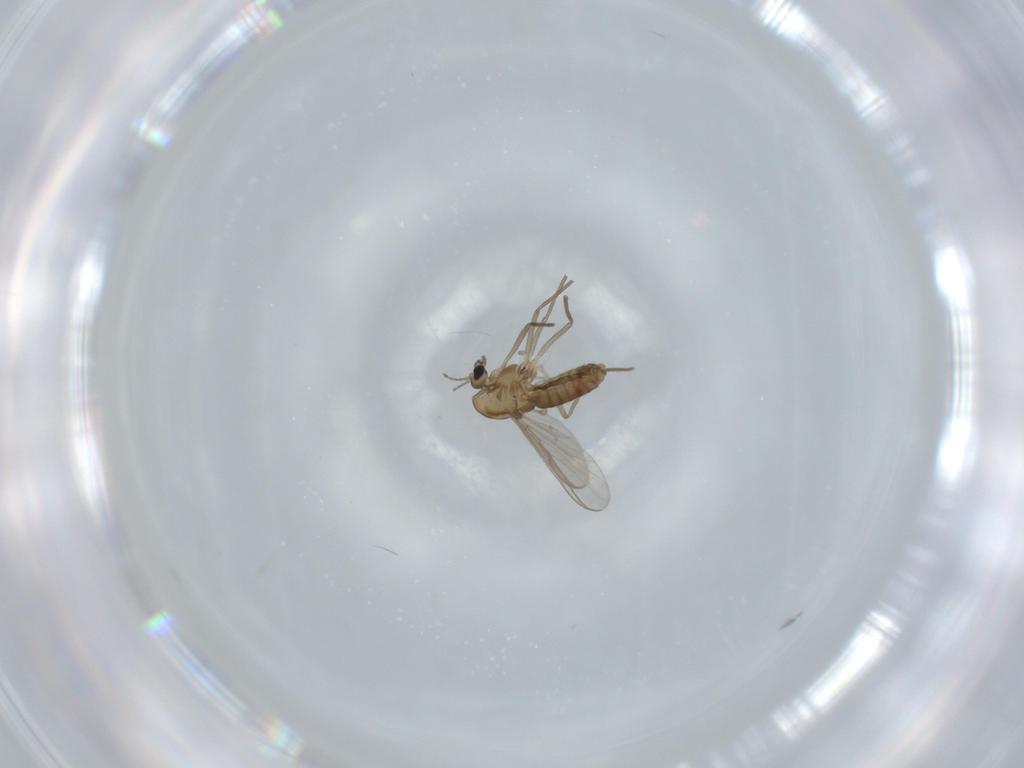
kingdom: Animalia
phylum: Arthropoda
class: Insecta
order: Diptera
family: Chironomidae
